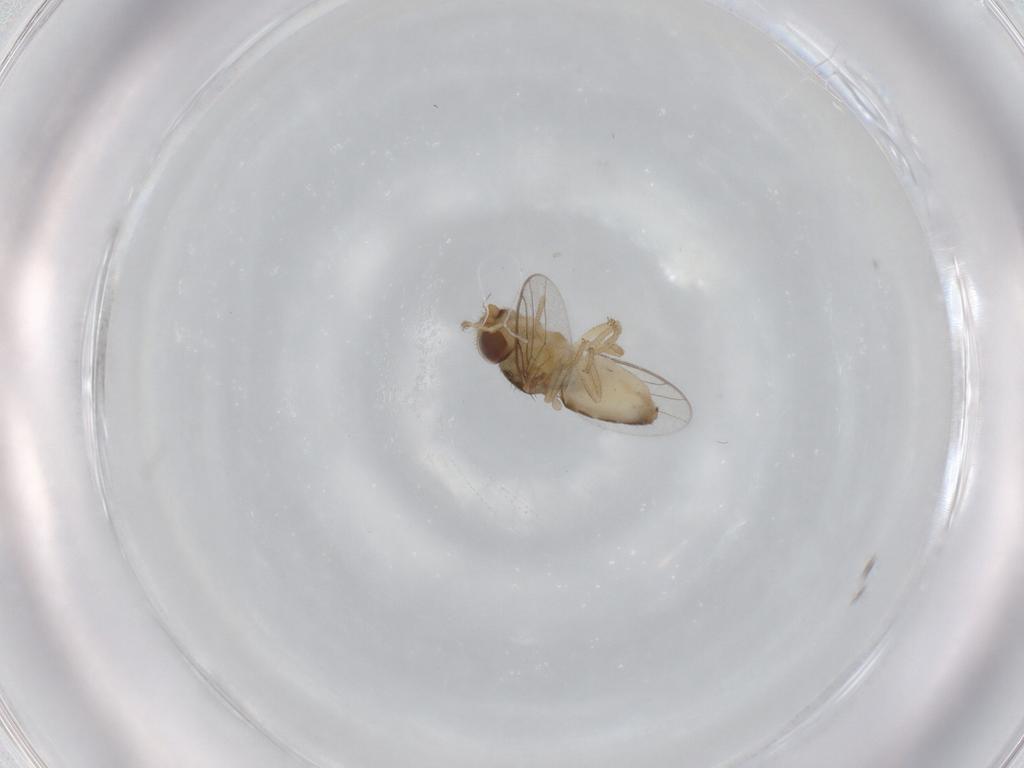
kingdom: Animalia
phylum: Arthropoda
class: Insecta
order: Diptera
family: Chloropidae
